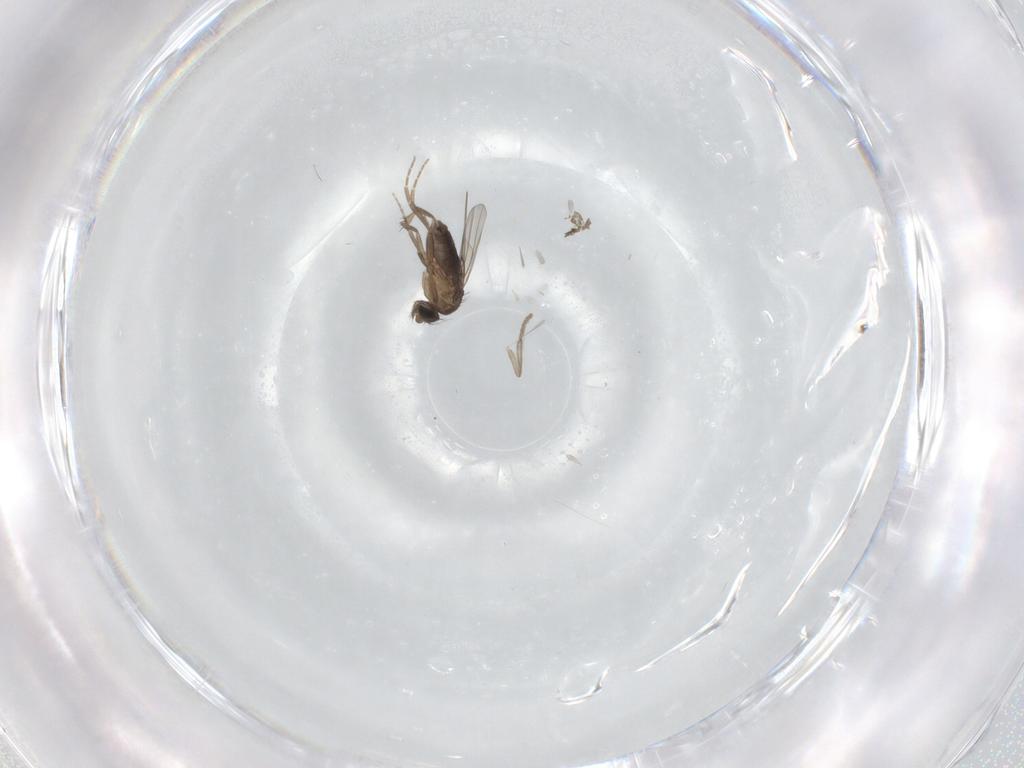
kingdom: Animalia
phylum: Arthropoda
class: Insecta
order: Diptera
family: Psychodidae
